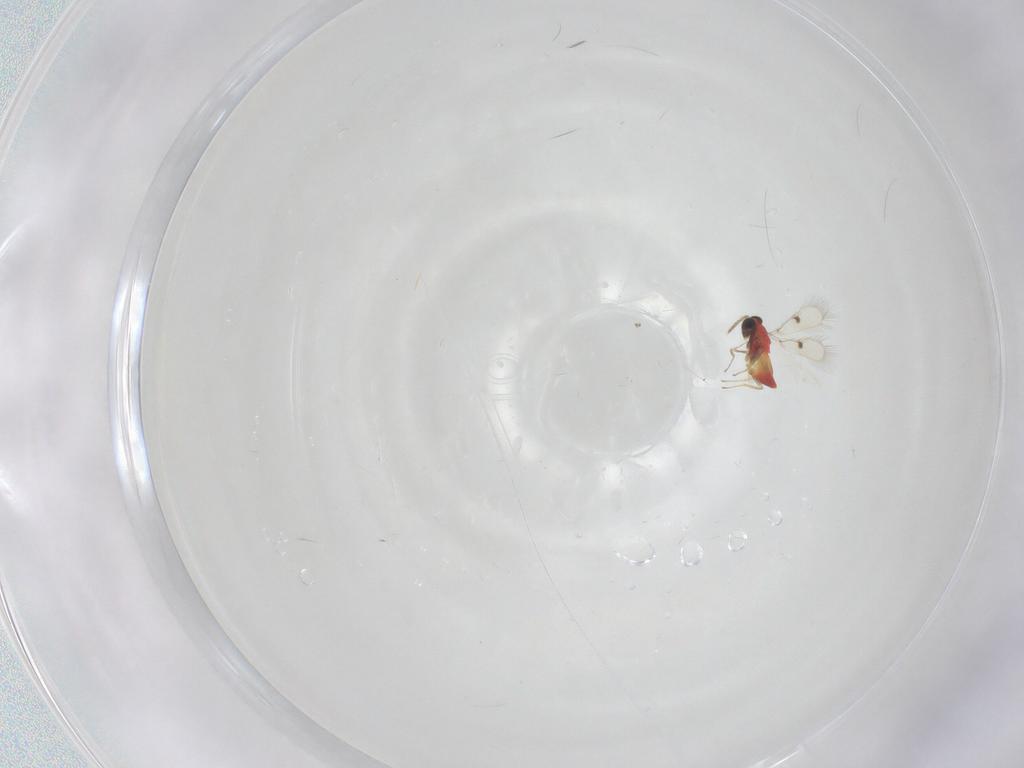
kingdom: Animalia
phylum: Arthropoda
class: Insecta
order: Hymenoptera
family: Trichogrammatidae
